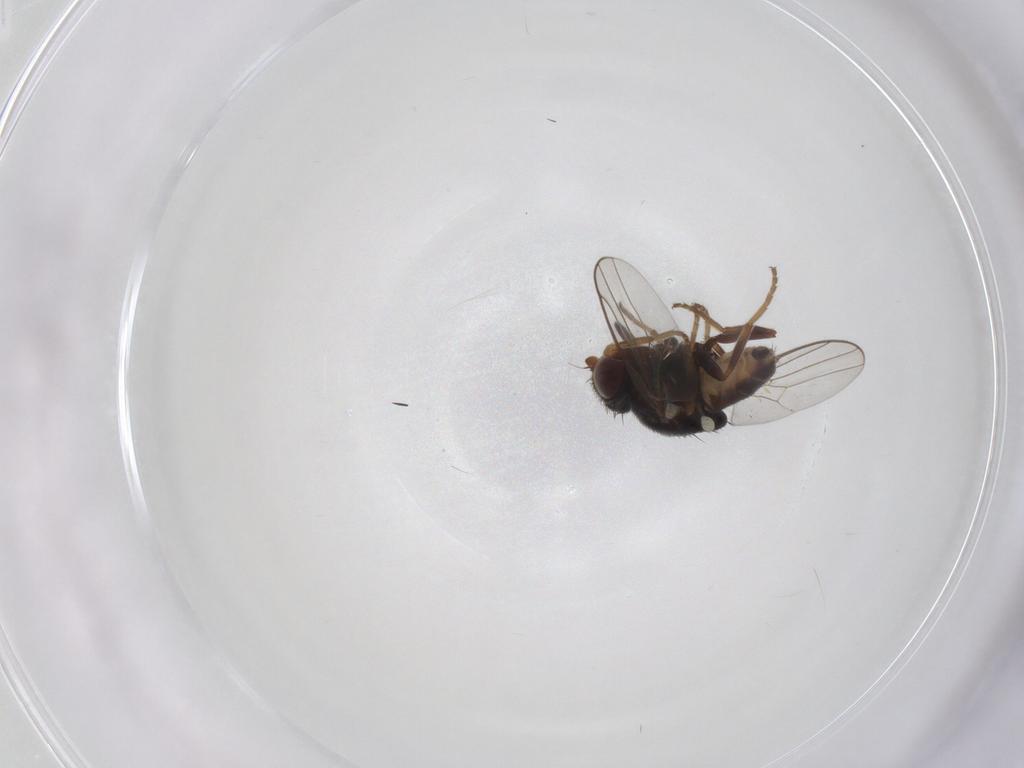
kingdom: Animalia
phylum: Arthropoda
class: Insecta
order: Diptera
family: Chloropidae
